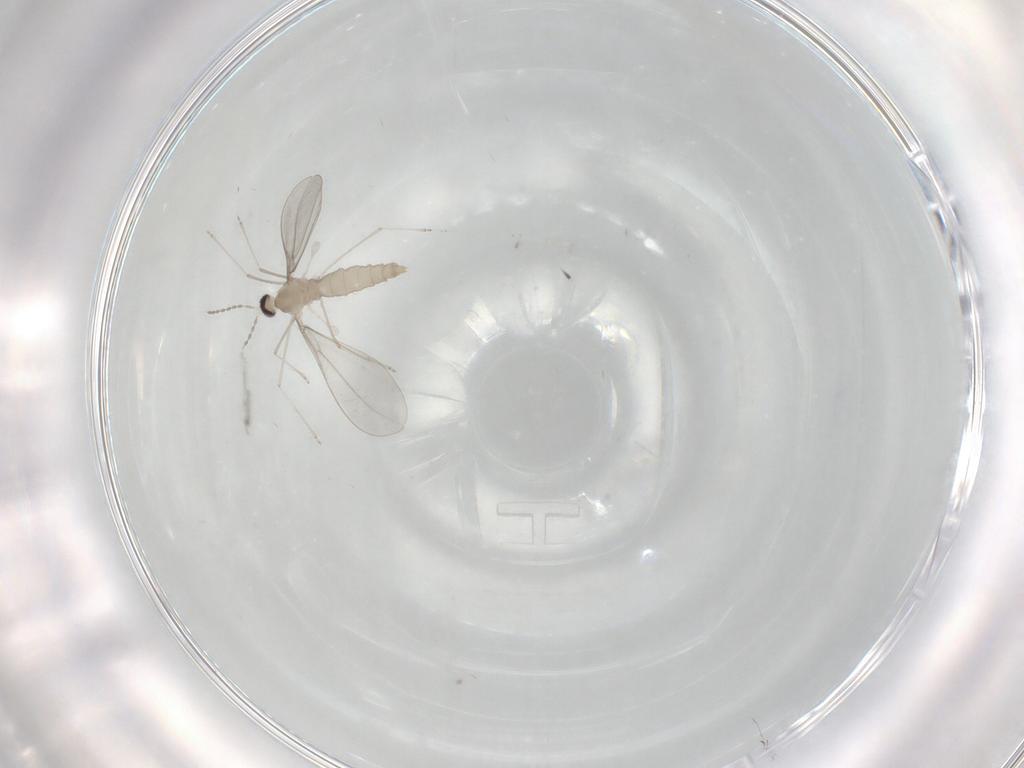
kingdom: Animalia
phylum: Arthropoda
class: Insecta
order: Diptera
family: Cecidomyiidae
